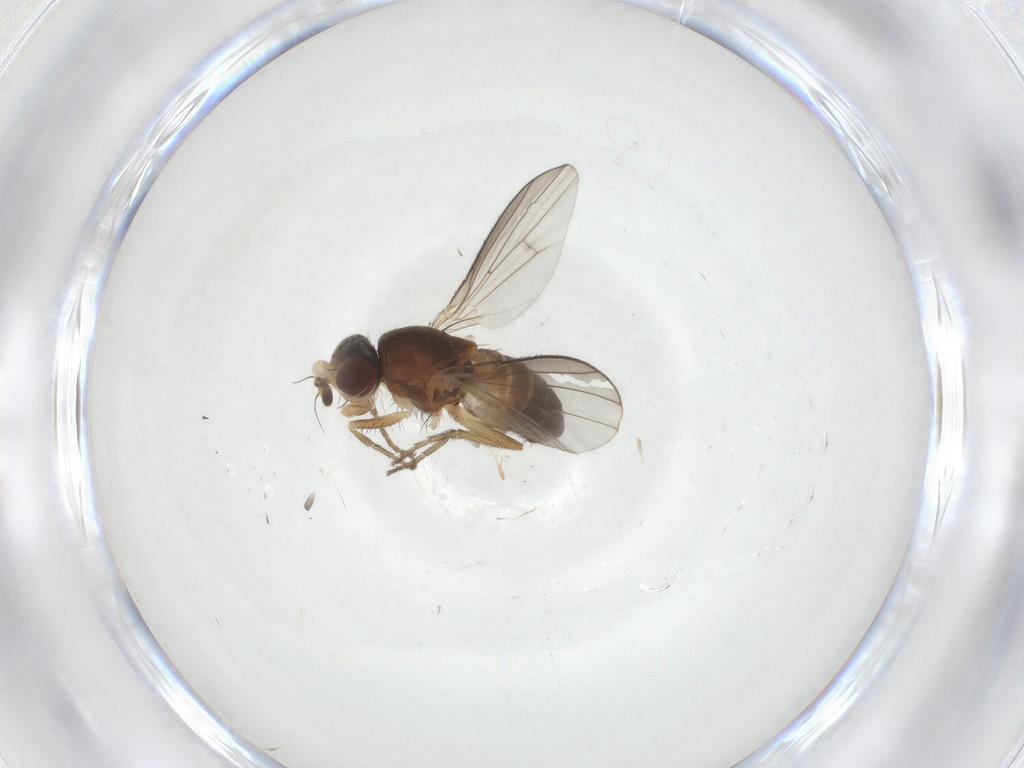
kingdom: Animalia
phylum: Arthropoda
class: Insecta
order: Diptera
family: Heleomyzidae
